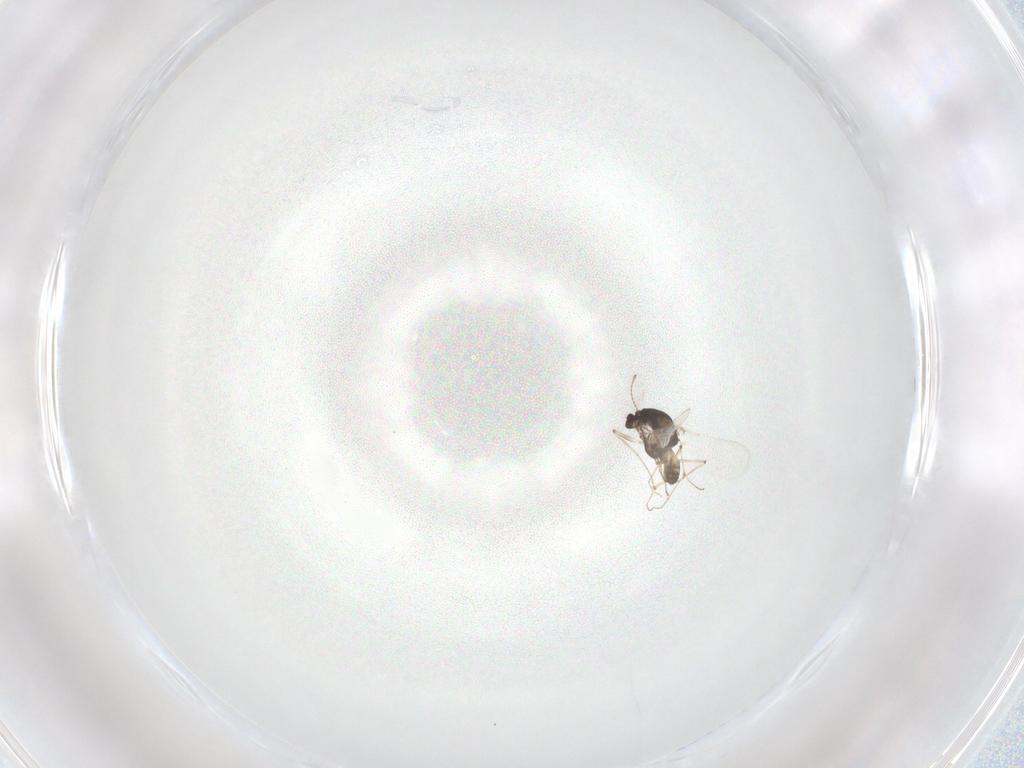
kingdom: Animalia
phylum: Arthropoda
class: Insecta
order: Diptera
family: Chironomidae
